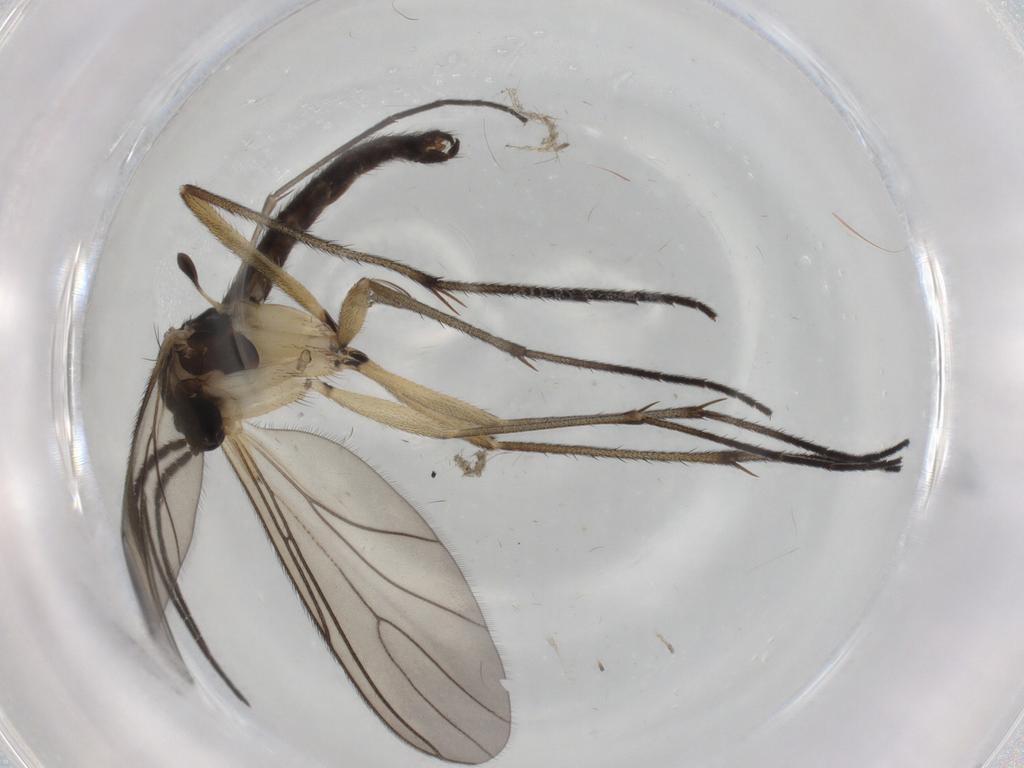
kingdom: Animalia
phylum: Arthropoda
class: Insecta
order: Diptera
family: Sciaridae
